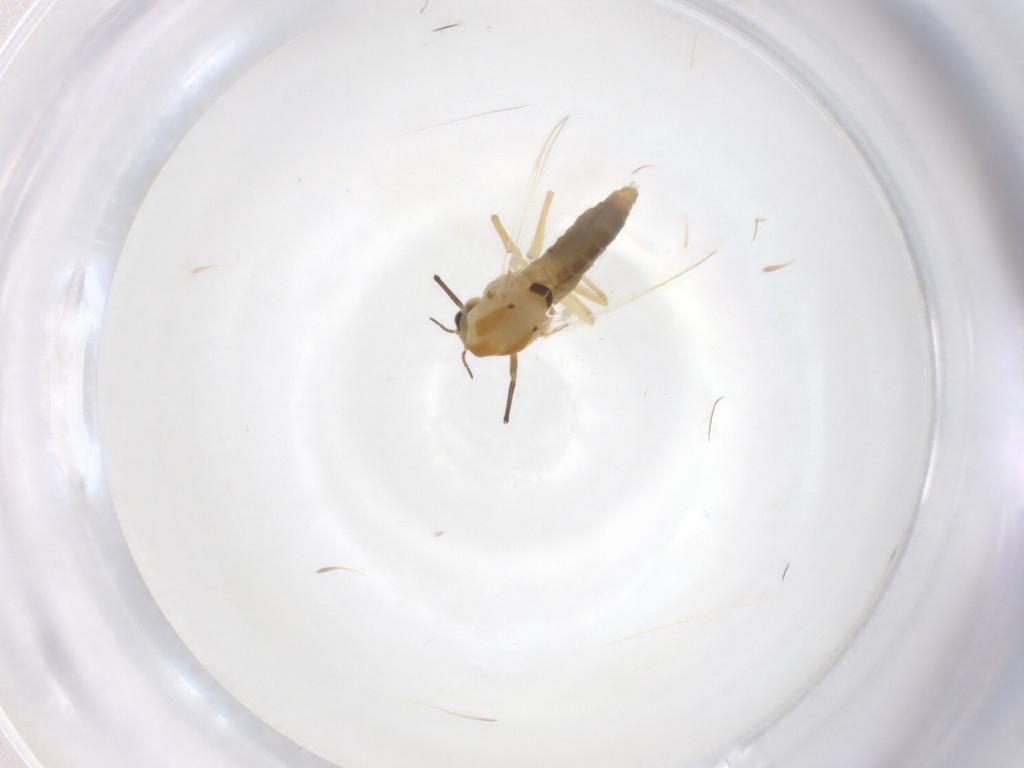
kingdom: Animalia
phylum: Arthropoda
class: Insecta
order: Diptera
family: Chironomidae
